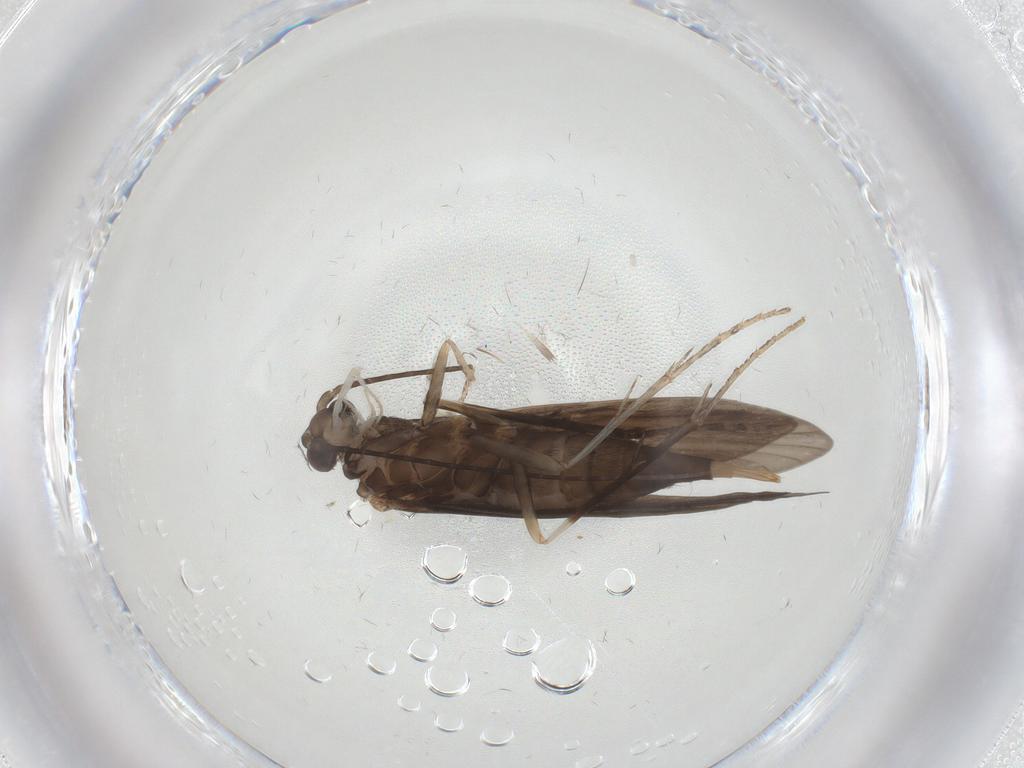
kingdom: Animalia
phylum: Arthropoda
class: Insecta
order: Trichoptera
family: Xiphocentronidae
